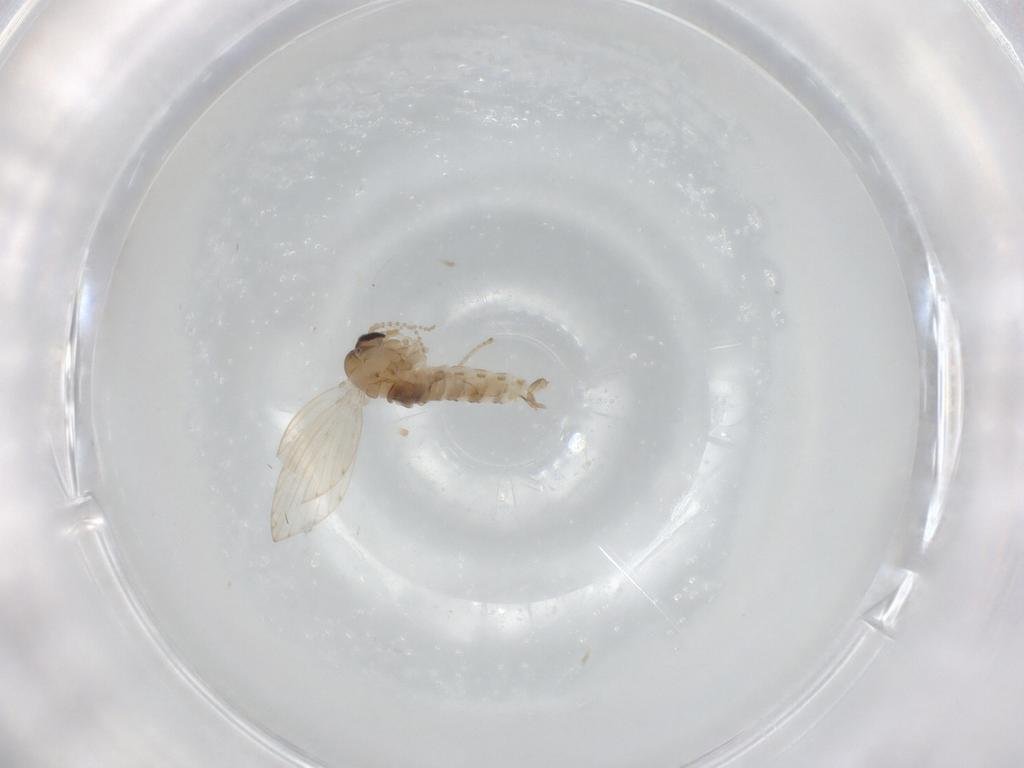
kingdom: Animalia
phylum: Arthropoda
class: Insecta
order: Diptera
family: Psychodidae
